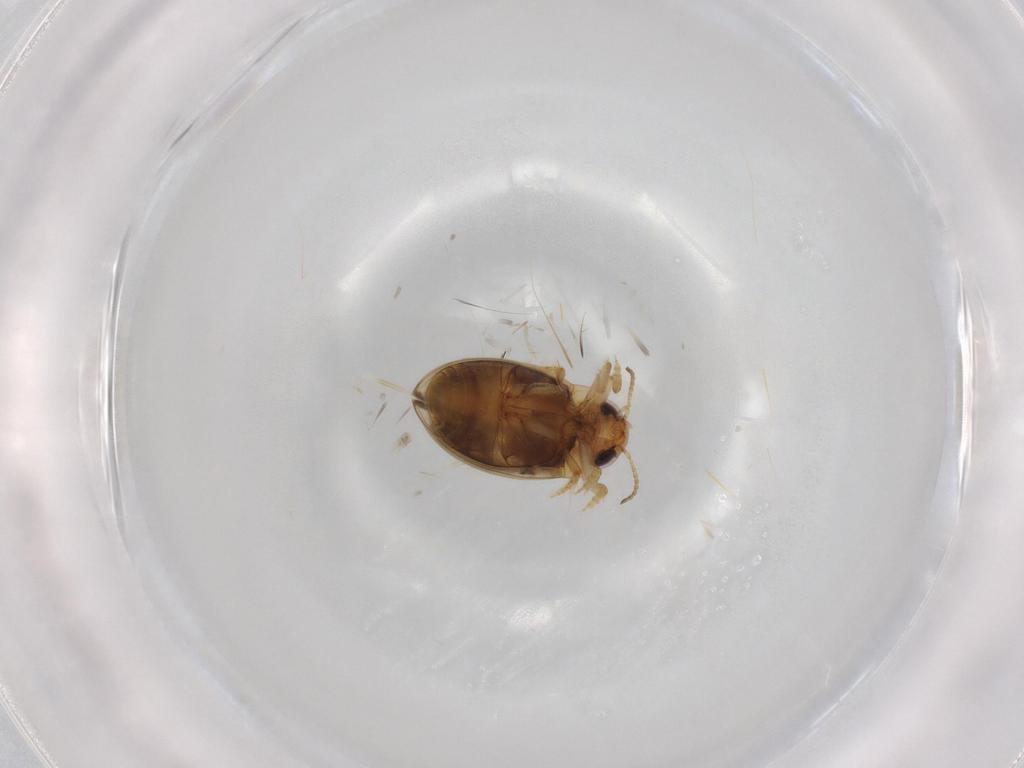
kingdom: Animalia
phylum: Arthropoda
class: Insecta
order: Coleoptera
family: Dytiscidae
